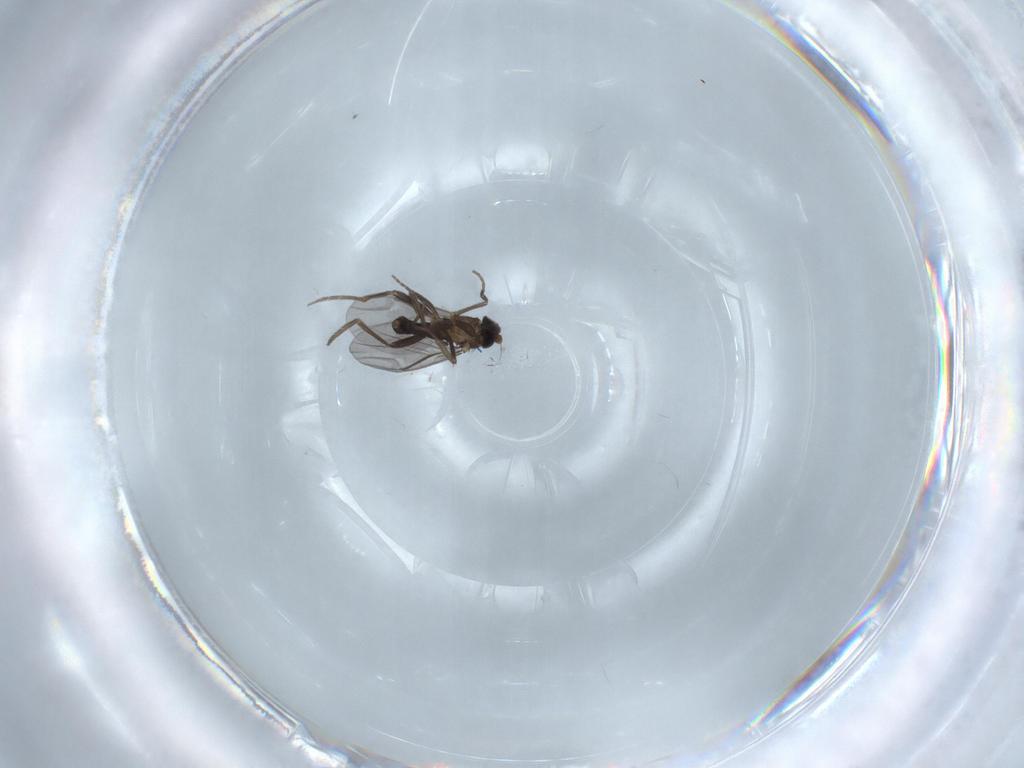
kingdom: Animalia
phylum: Arthropoda
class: Insecta
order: Diptera
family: Phoridae
